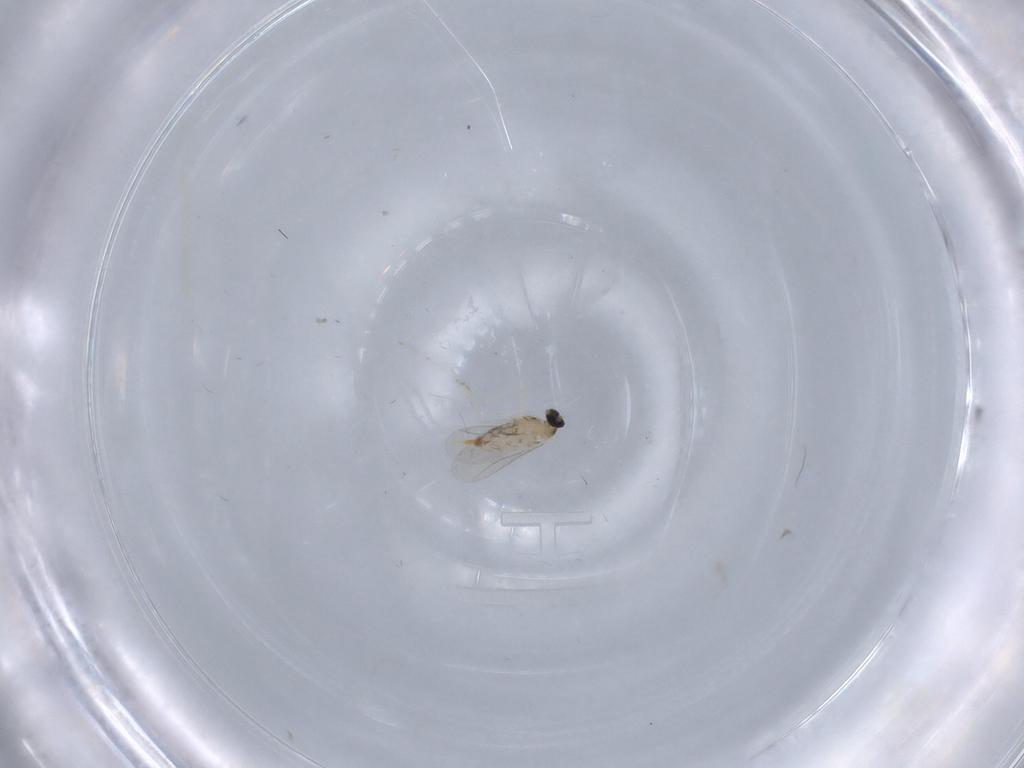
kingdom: Animalia
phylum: Arthropoda
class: Insecta
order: Diptera
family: Cecidomyiidae
